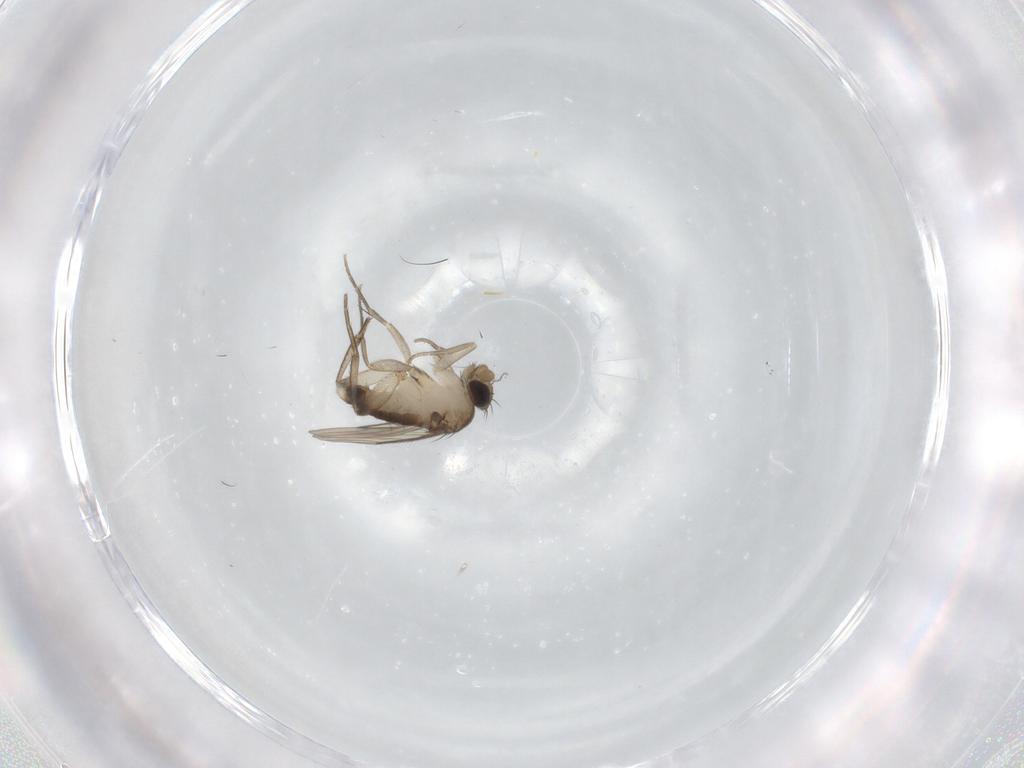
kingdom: Animalia
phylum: Arthropoda
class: Insecta
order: Diptera
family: Phoridae
